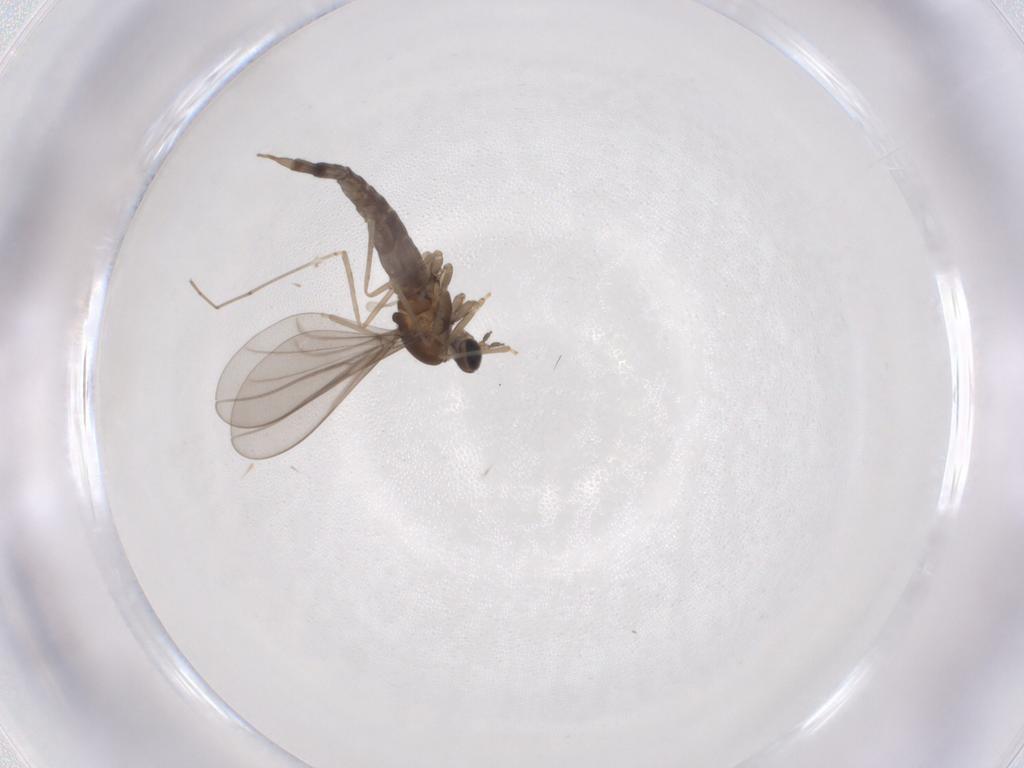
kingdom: Animalia
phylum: Arthropoda
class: Insecta
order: Diptera
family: Cecidomyiidae
